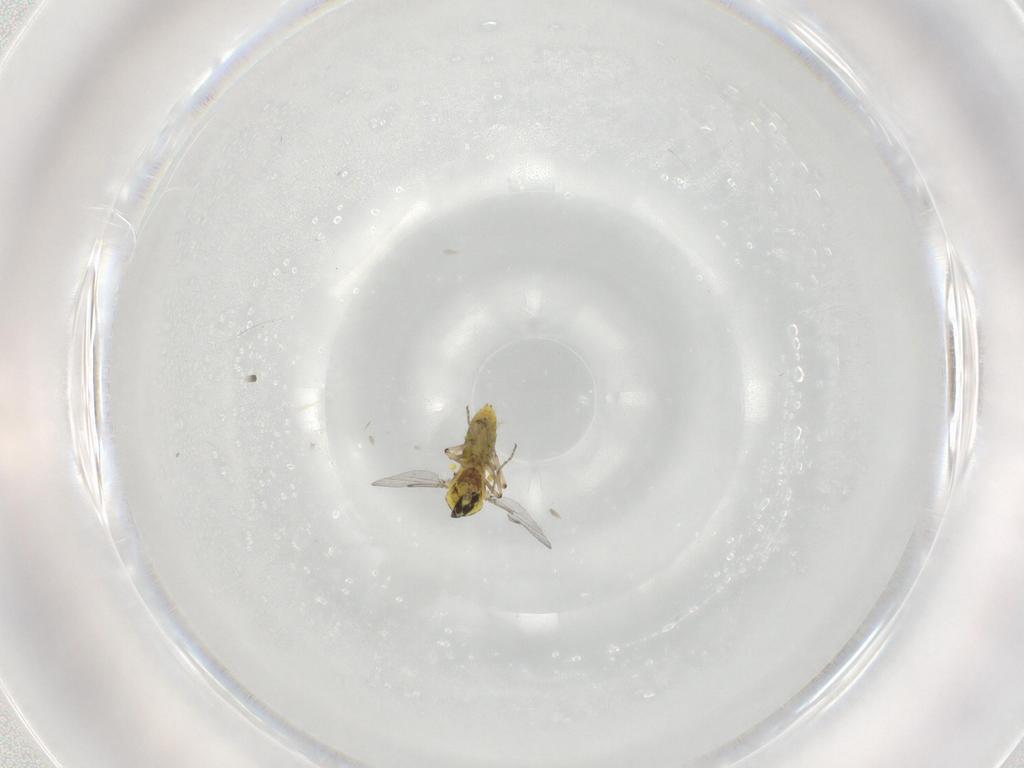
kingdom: Animalia
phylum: Arthropoda
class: Insecta
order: Diptera
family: Ceratopogonidae
